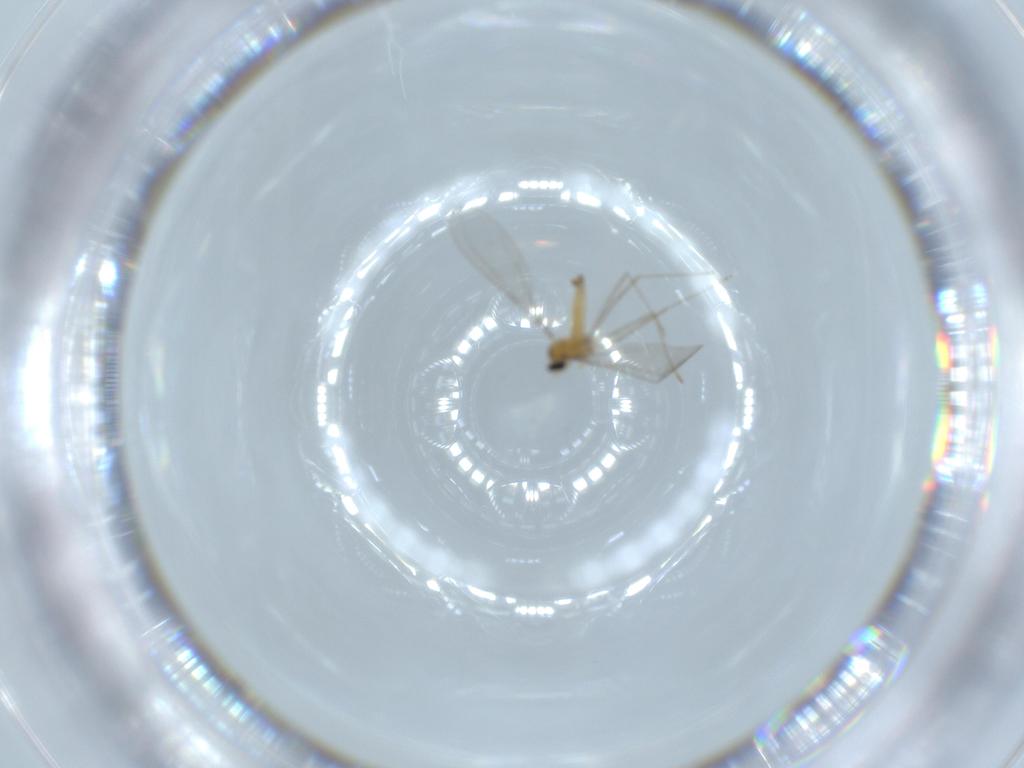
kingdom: Animalia
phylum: Arthropoda
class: Insecta
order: Diptera
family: Cecidomyiidae
